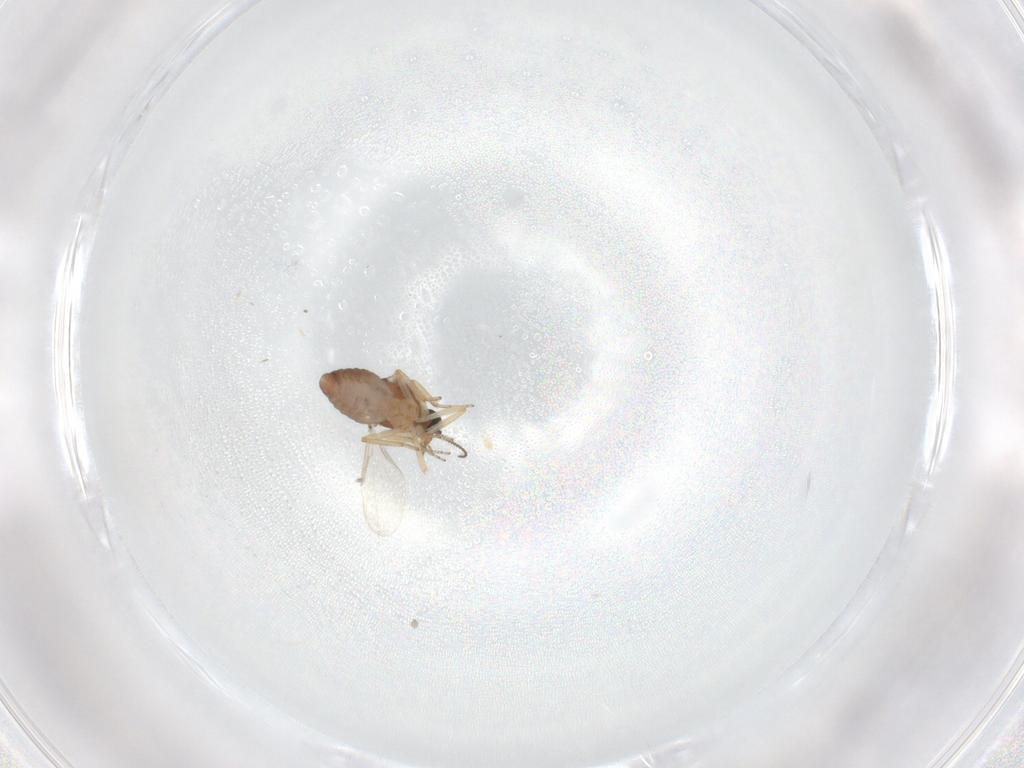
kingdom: Animalia
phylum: Arthropoda
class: Insecta
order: Diptera
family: Ceratopogonidae
